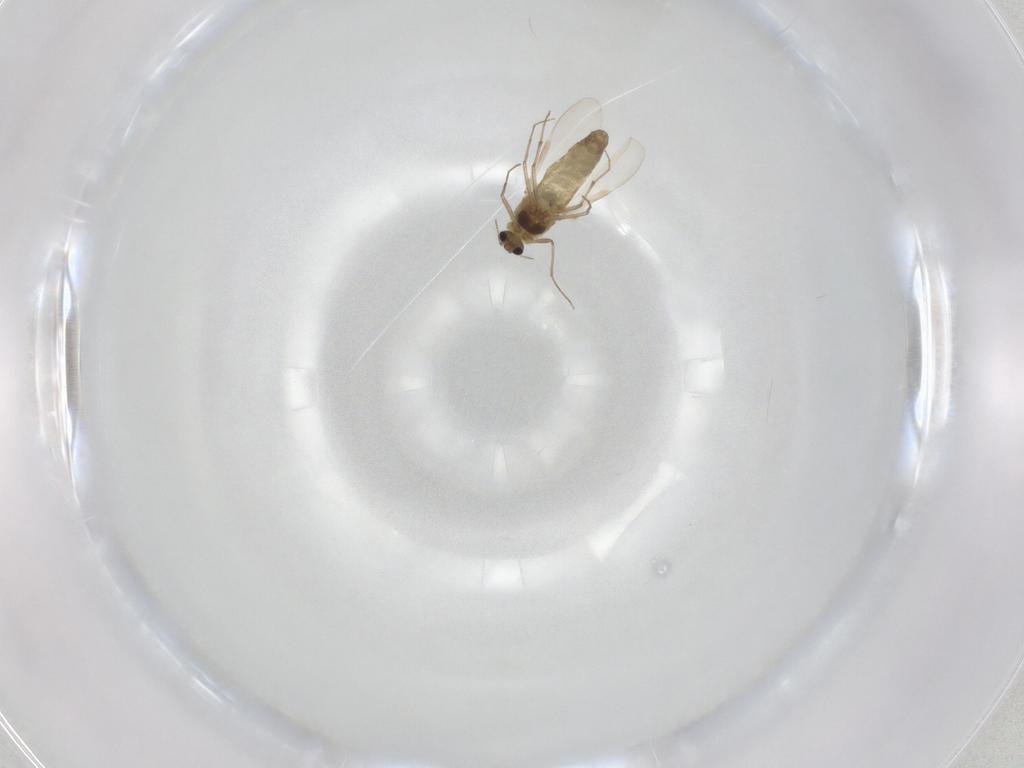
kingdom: Animalia
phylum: Arthropoda
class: Insecta
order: Diptera
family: Chironomidae
